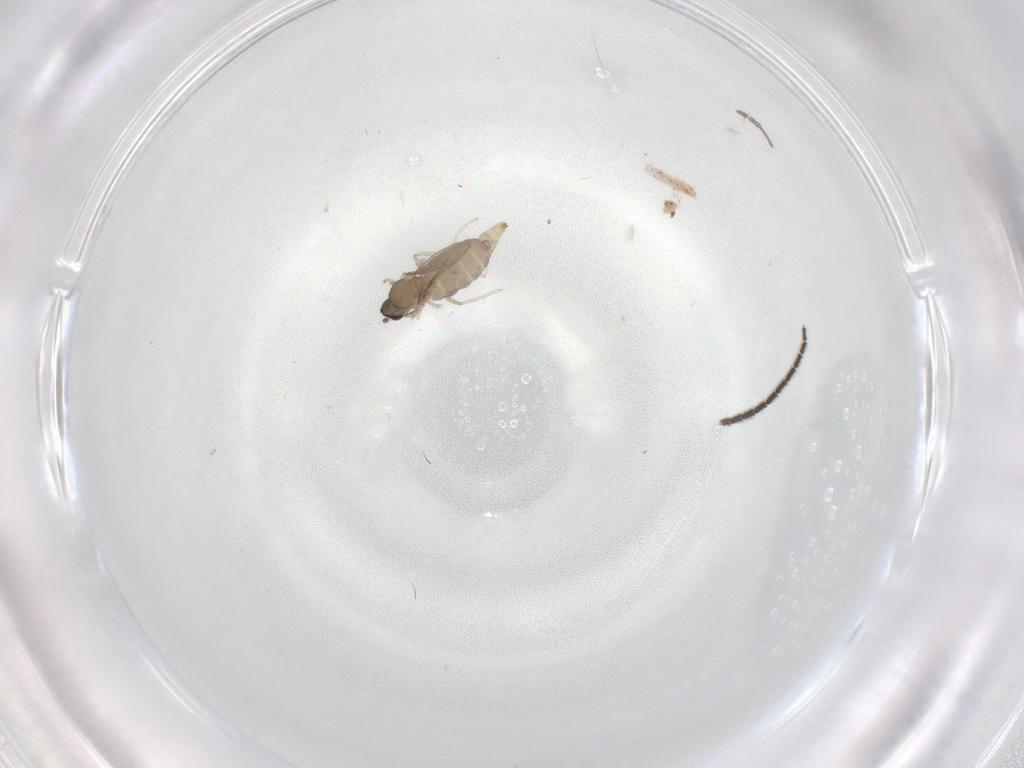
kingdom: Animalia
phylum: Arthropoda
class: Insecta
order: Diptera
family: Cecidomyiidae
